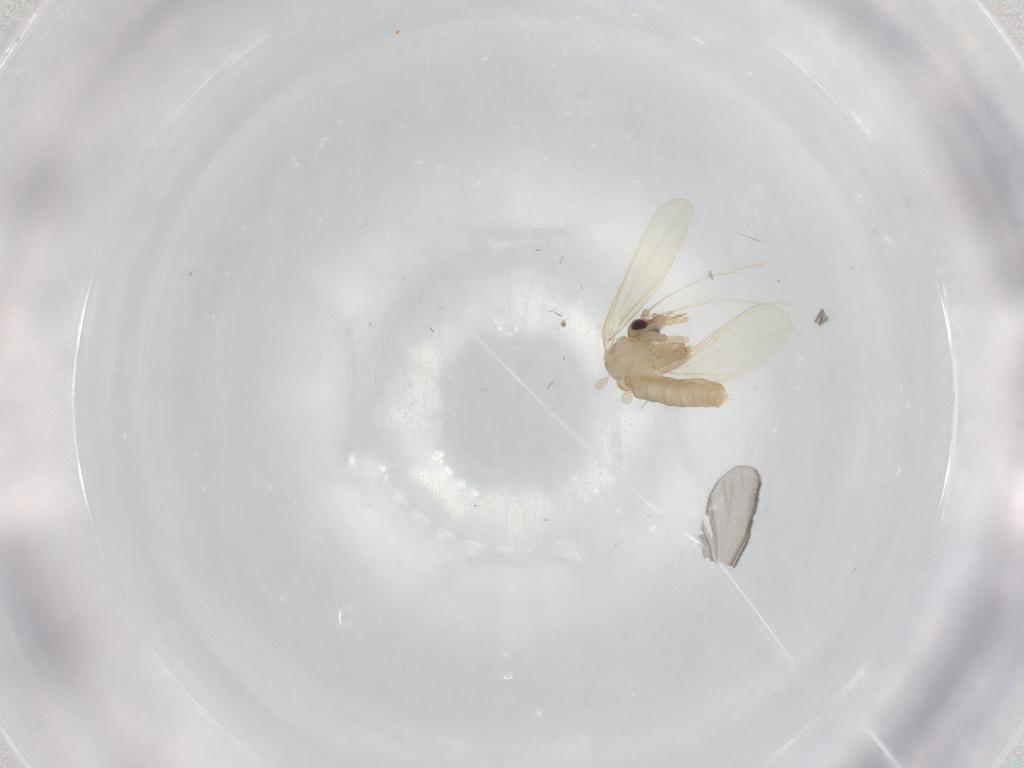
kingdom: Animalia
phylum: Arthropoda
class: Insecta
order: Diptera
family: Psychodidae
